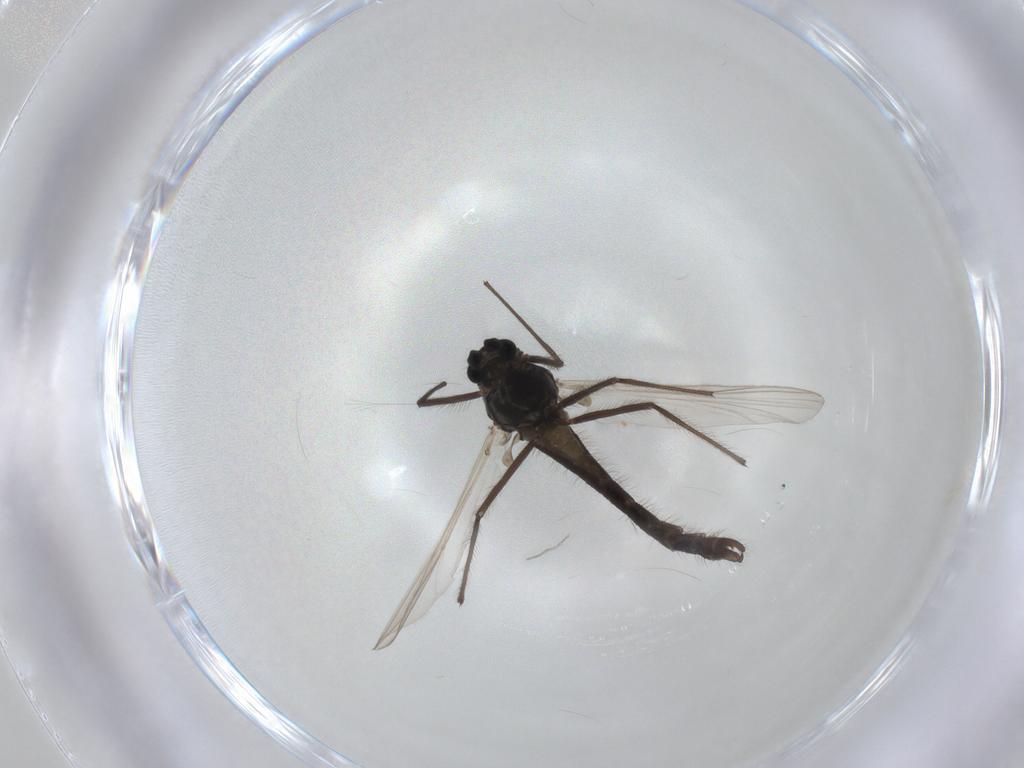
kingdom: Animalia
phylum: Arthropoda
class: Insecta
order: Diptera
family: Chironomidae
